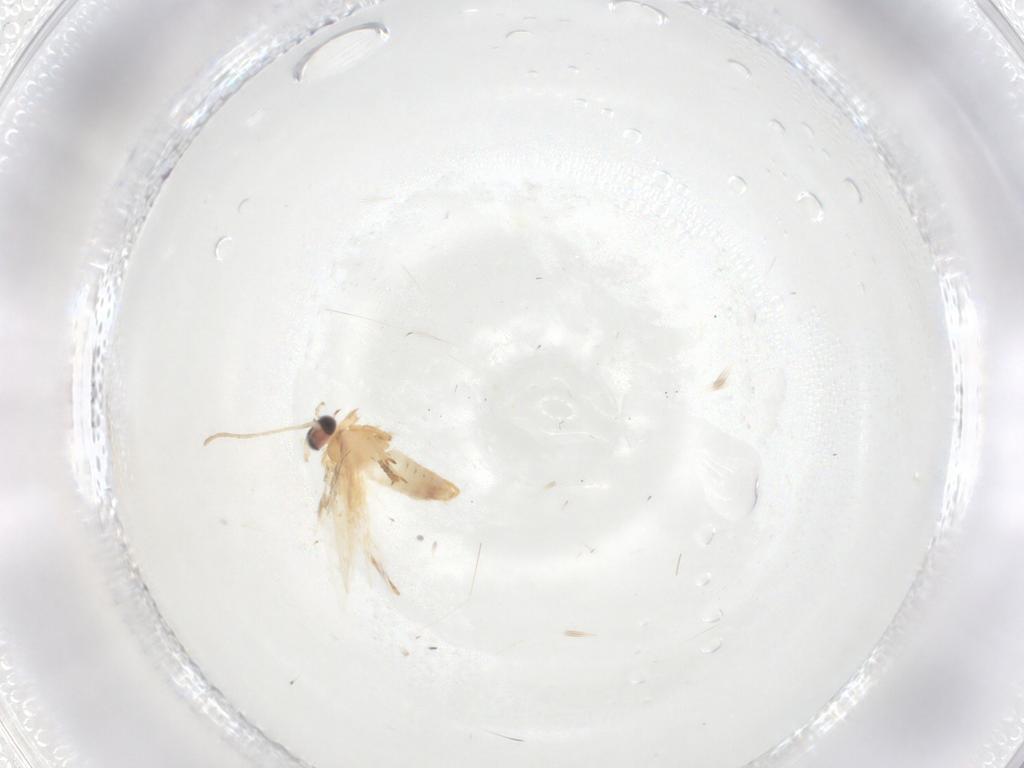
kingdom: Animalia
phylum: Arthropoda
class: Insecta
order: Lepidoptera
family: Nepticulidae
